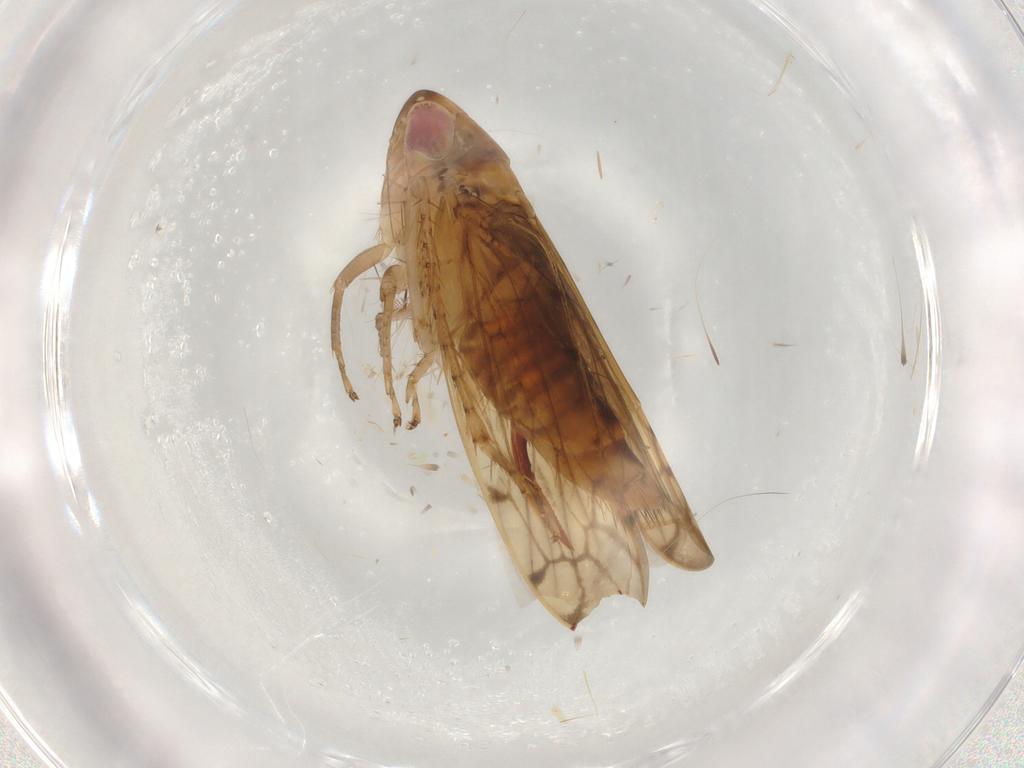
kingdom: Animalia
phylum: Arthropoda
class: Insecta
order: Hemiptera
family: Cicadellidae
